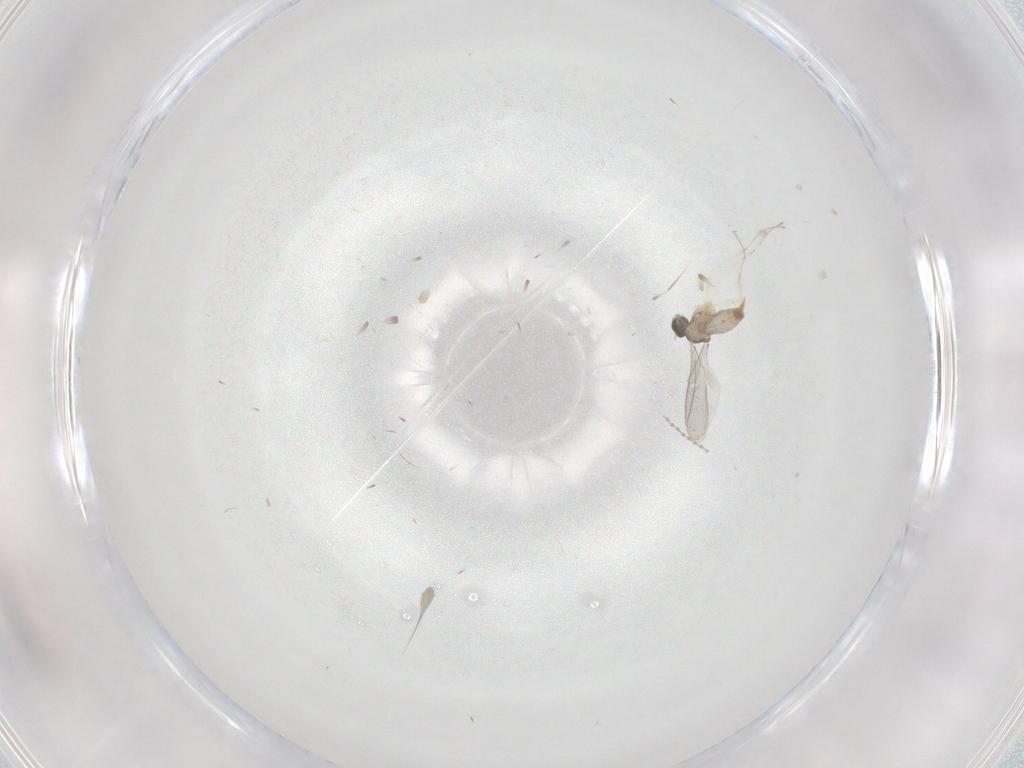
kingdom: Animalia
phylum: Arthropoda
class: Insecta
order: Diptera
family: Cecidomyiidae
